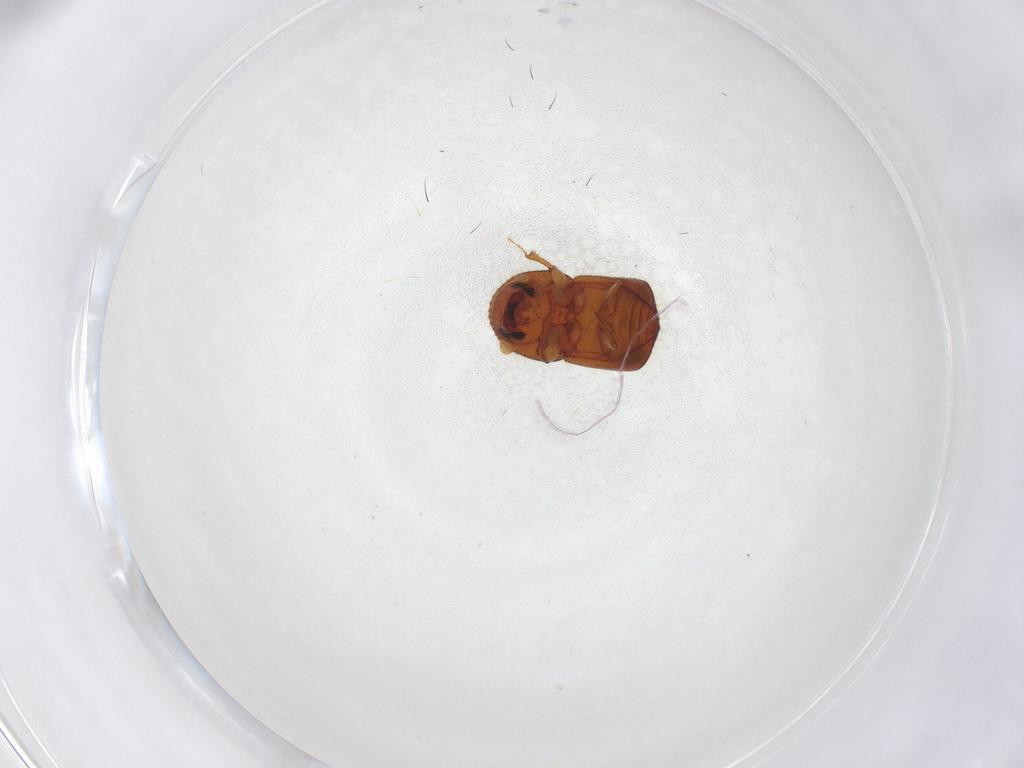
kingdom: Animalia
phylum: Arthropoda
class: Insecta
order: Coleoptera
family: Curculionidae
